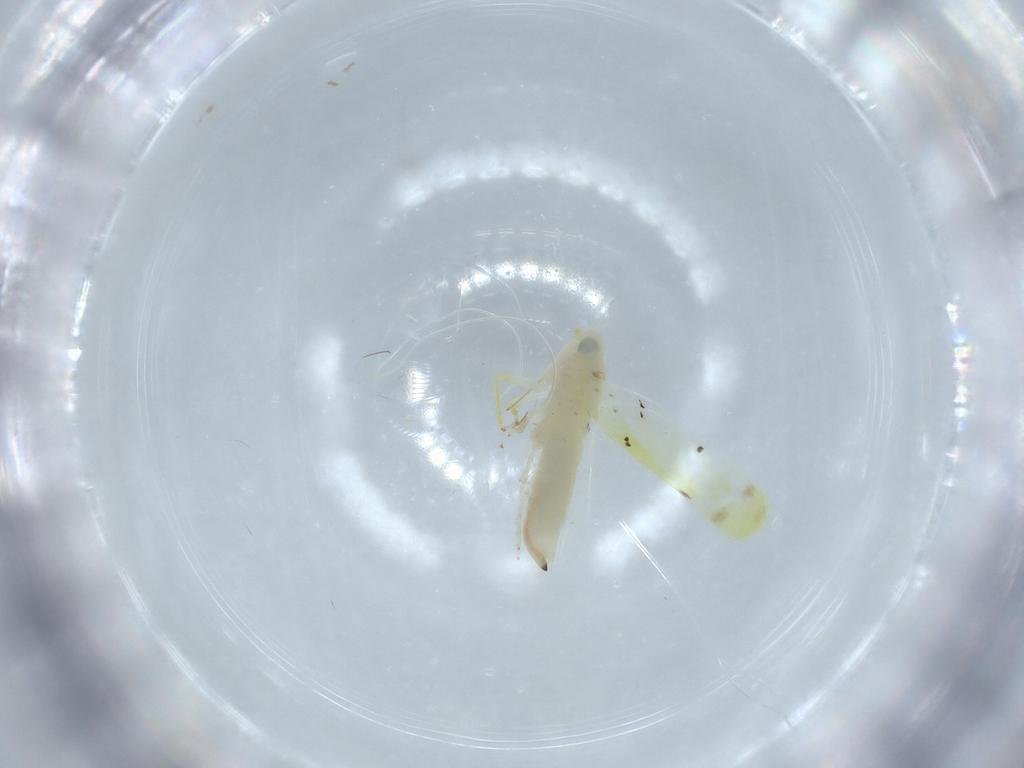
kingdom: Animalia
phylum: Arthropoda
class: Insecta
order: Hemiptera
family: Cicadellidae
